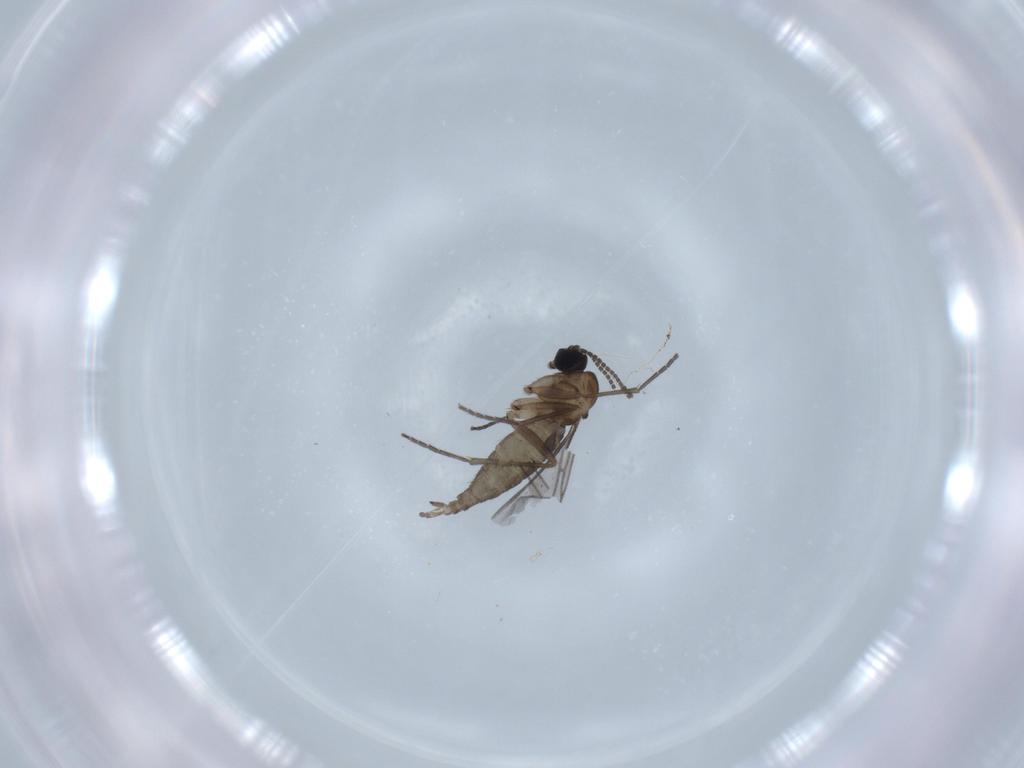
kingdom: Animalia
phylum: Arthropoda
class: Insecta
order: Diptera
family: Sciaridae
